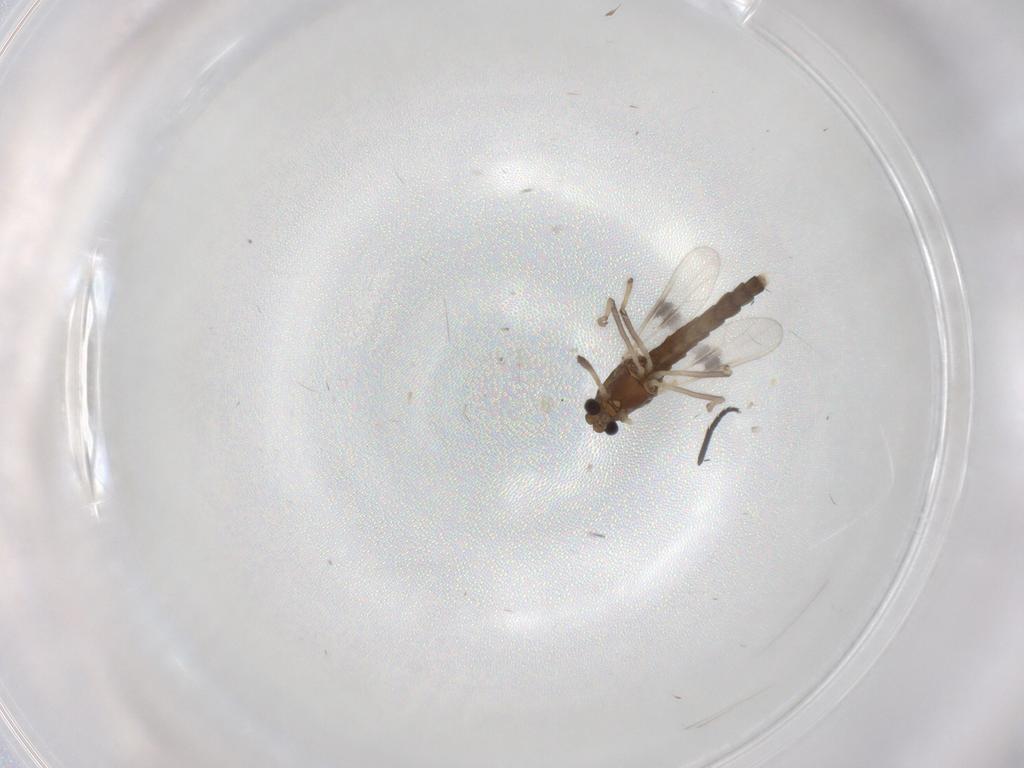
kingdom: Animalia
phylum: Arthropoda
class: Insecta
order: Diptera
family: Chironomidae
